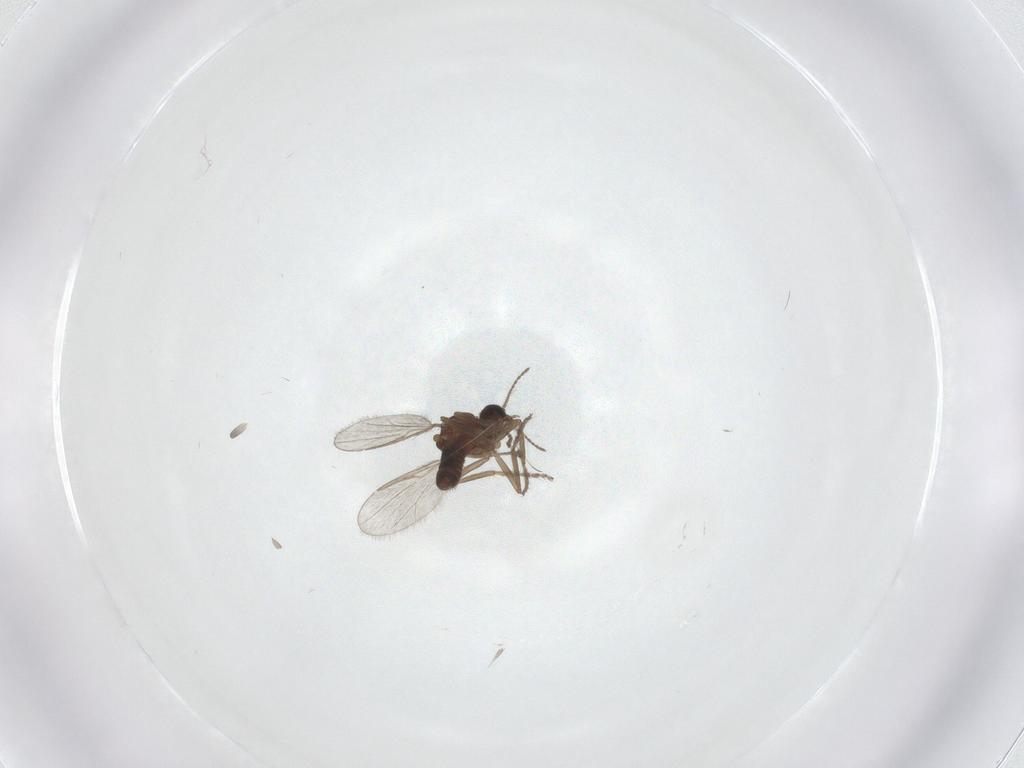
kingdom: Animalia
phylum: Arthropoda
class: Insecta
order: Diptera
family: Ceratopogonidae
